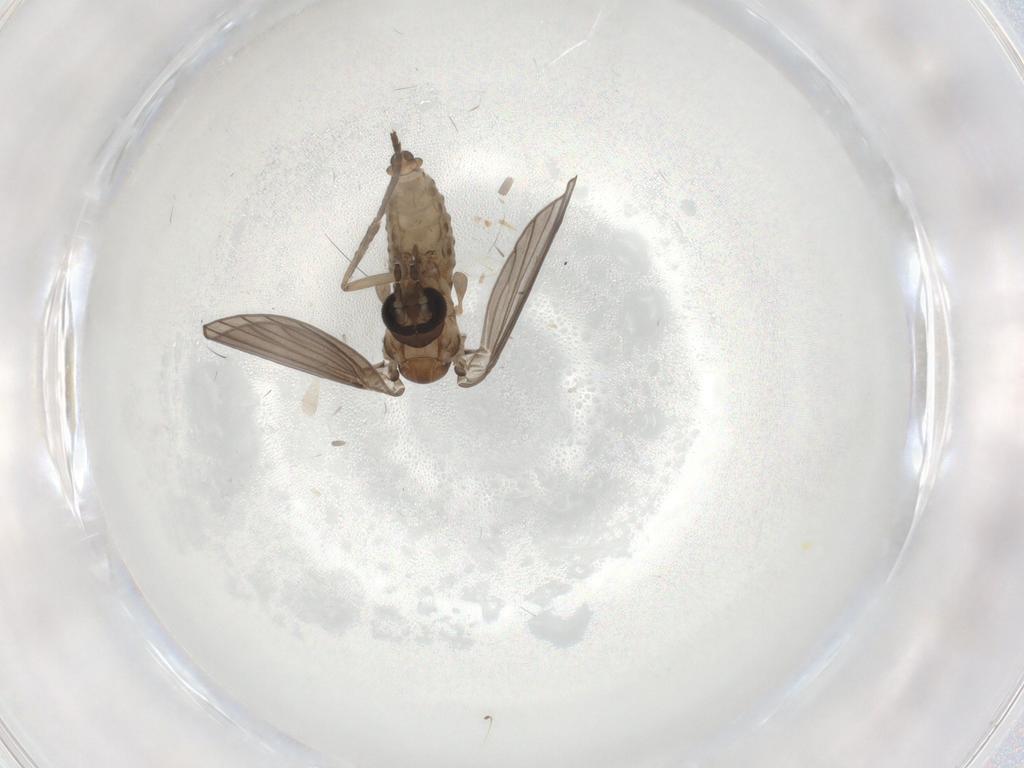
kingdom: Animalia
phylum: Arthropoda
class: Insecta
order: Diptera
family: Phoridae
